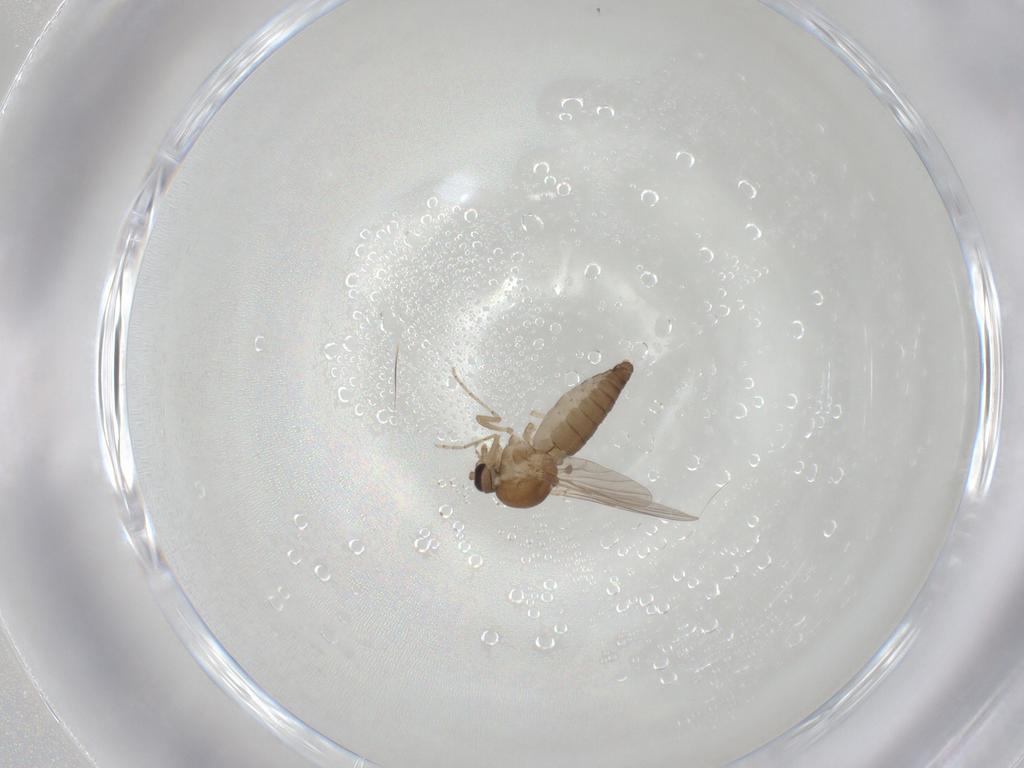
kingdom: Animalia
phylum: Arthropoda
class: Insecta
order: Diptera
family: Ceratopogonidae
